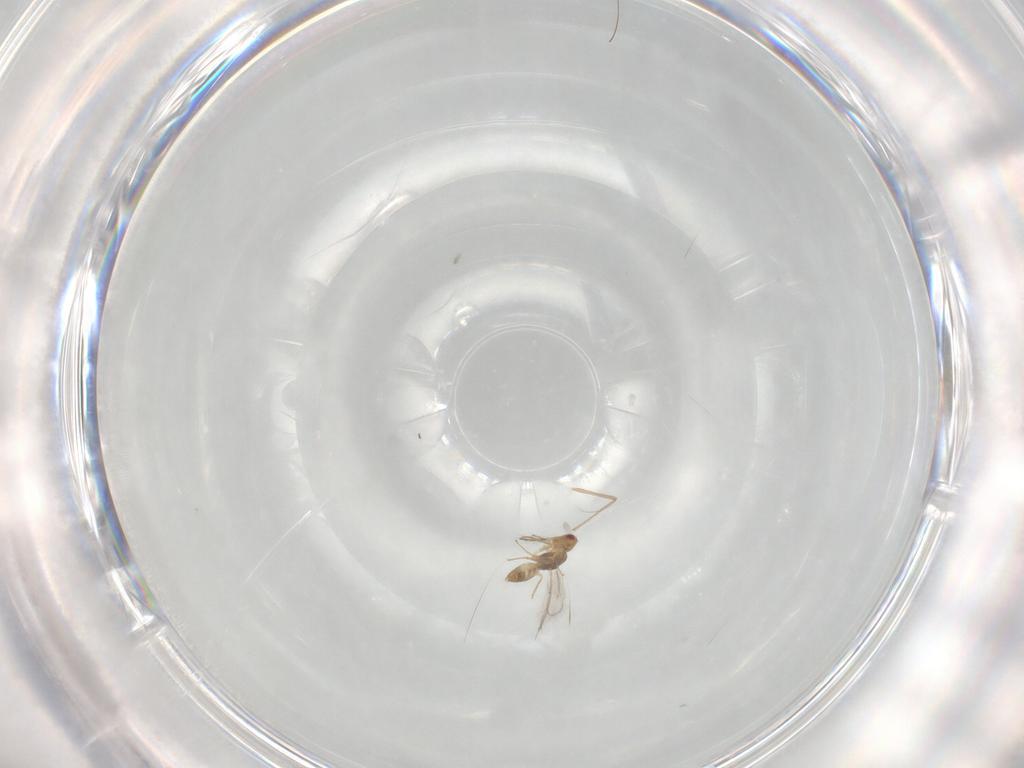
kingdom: Animalia
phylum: Arthropoda
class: Insecta
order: Hymenoptera
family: Eulophidae
